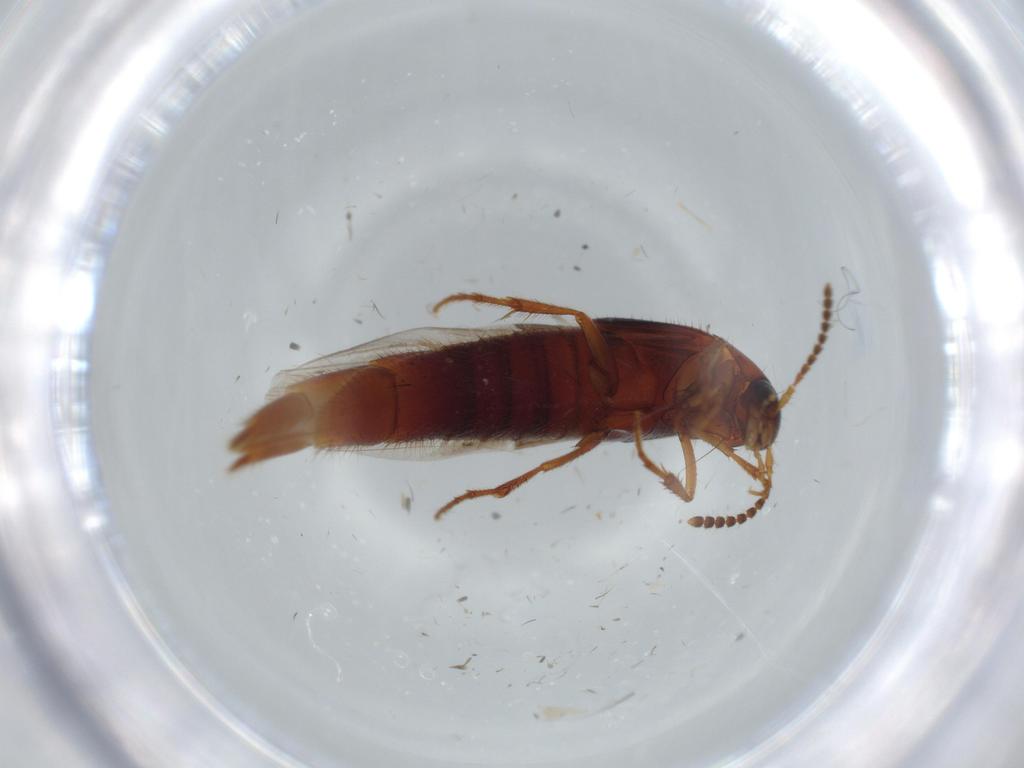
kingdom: Animalia
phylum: Arthropoda
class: Insecta
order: Coleoptera
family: Staphylinidae
